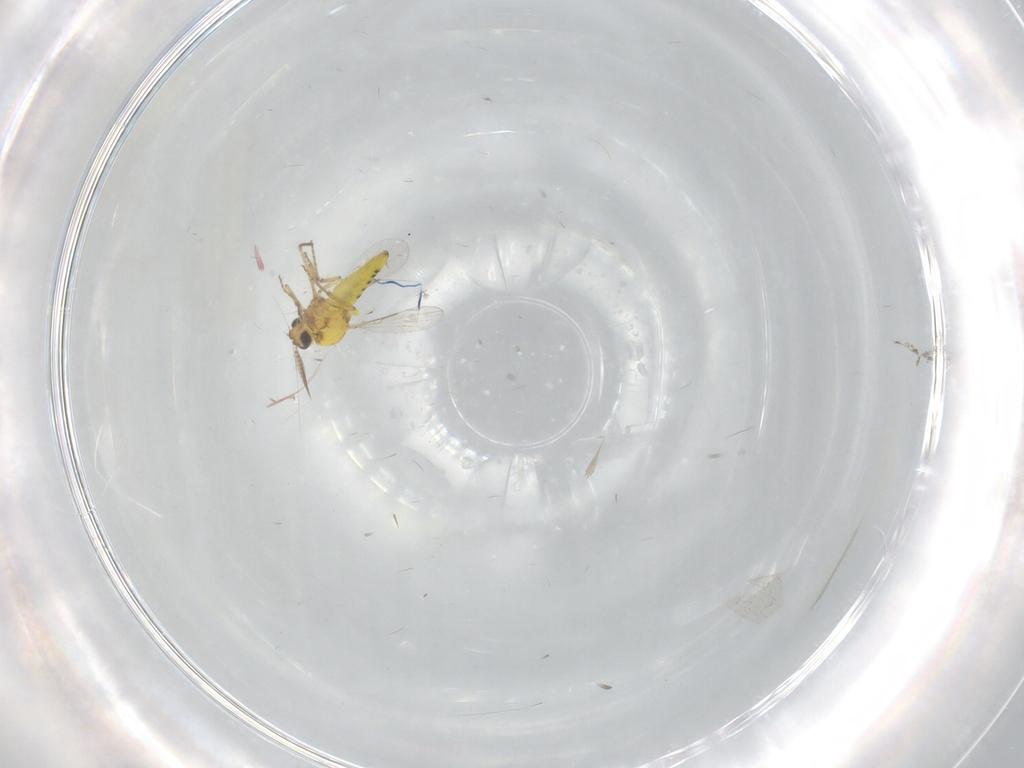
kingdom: Animalia
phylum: Arthropoda
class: Insecta
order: Diptera
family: Ceratopogonidae
